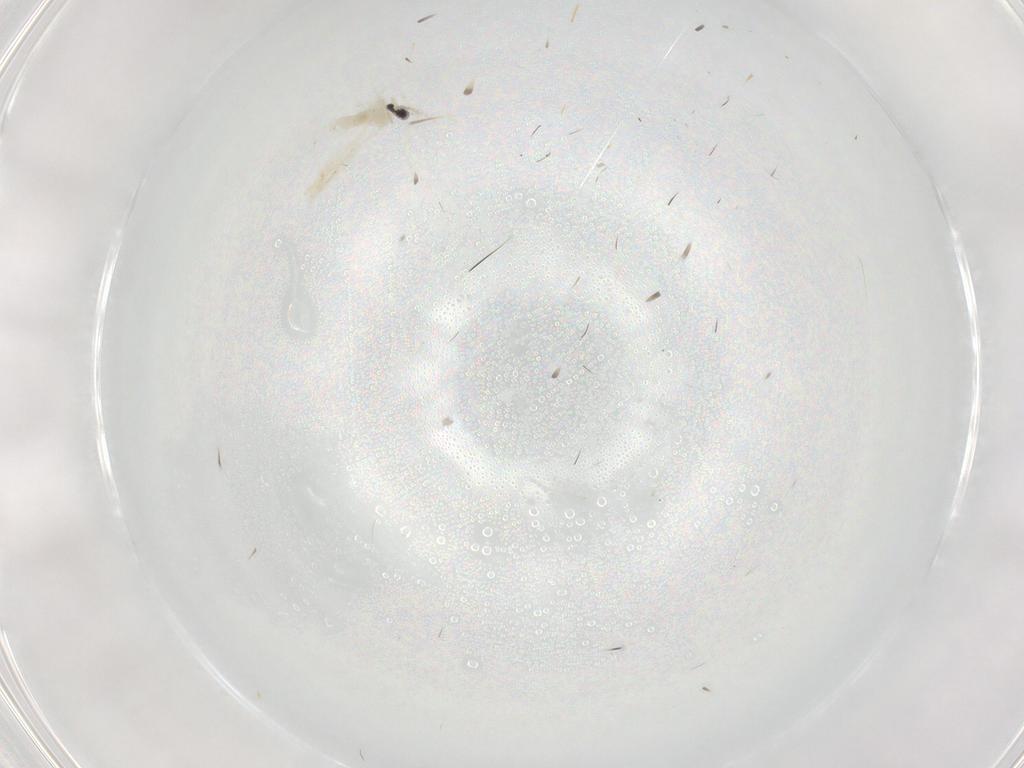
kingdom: Animalia
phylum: Arthropoda
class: Insecta
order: Diptera
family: Phoridae
